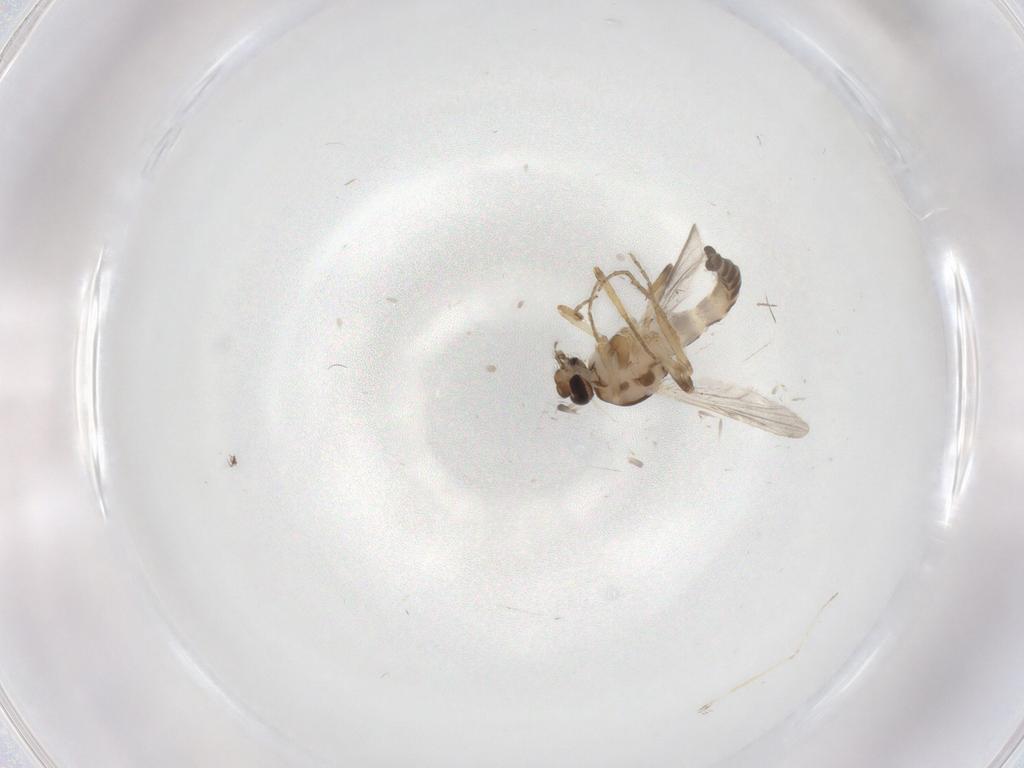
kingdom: Animalia
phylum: Arthropoda
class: Insecta
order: Diptera
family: Ceratopogonidae
